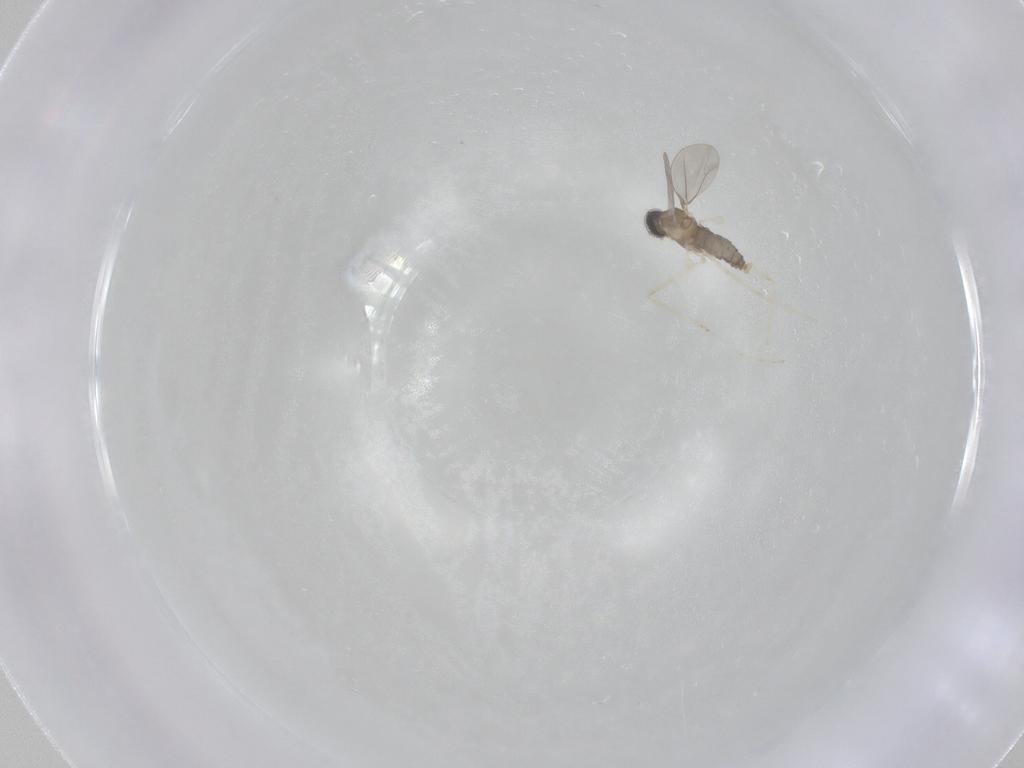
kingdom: Animalia
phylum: Arthropoda
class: Insecta
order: Diptera
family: Cecidomyiidae
